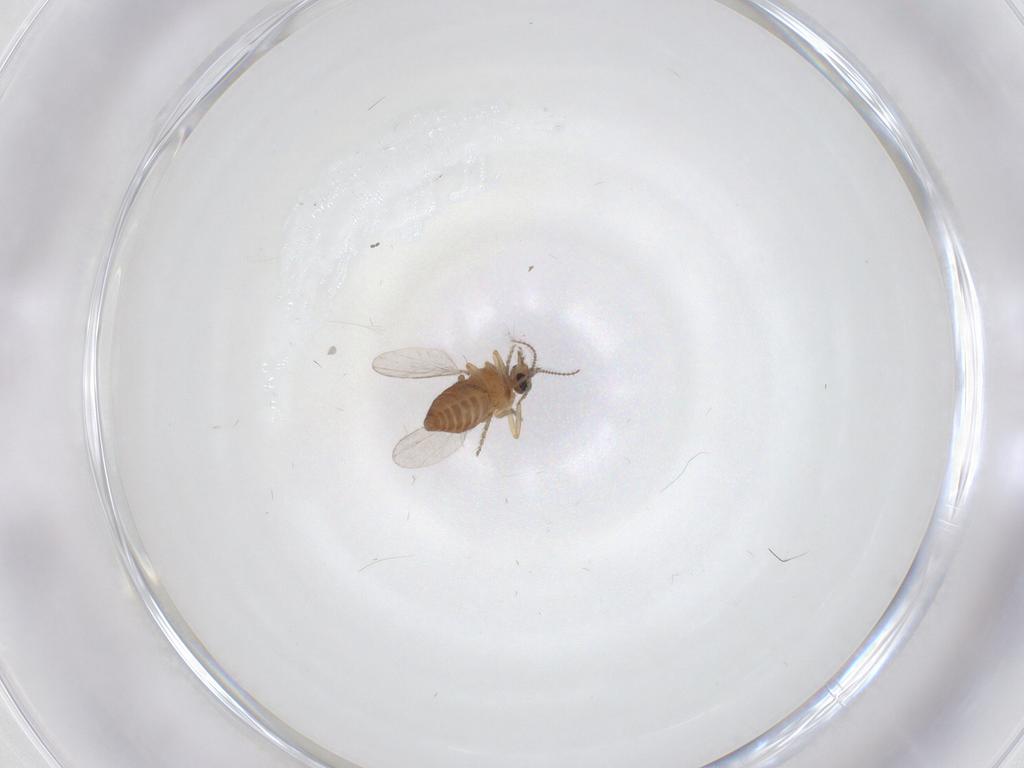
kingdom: Animalia
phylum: Arthropoda
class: Insecta
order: Diptera
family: Ceratopogonidae
